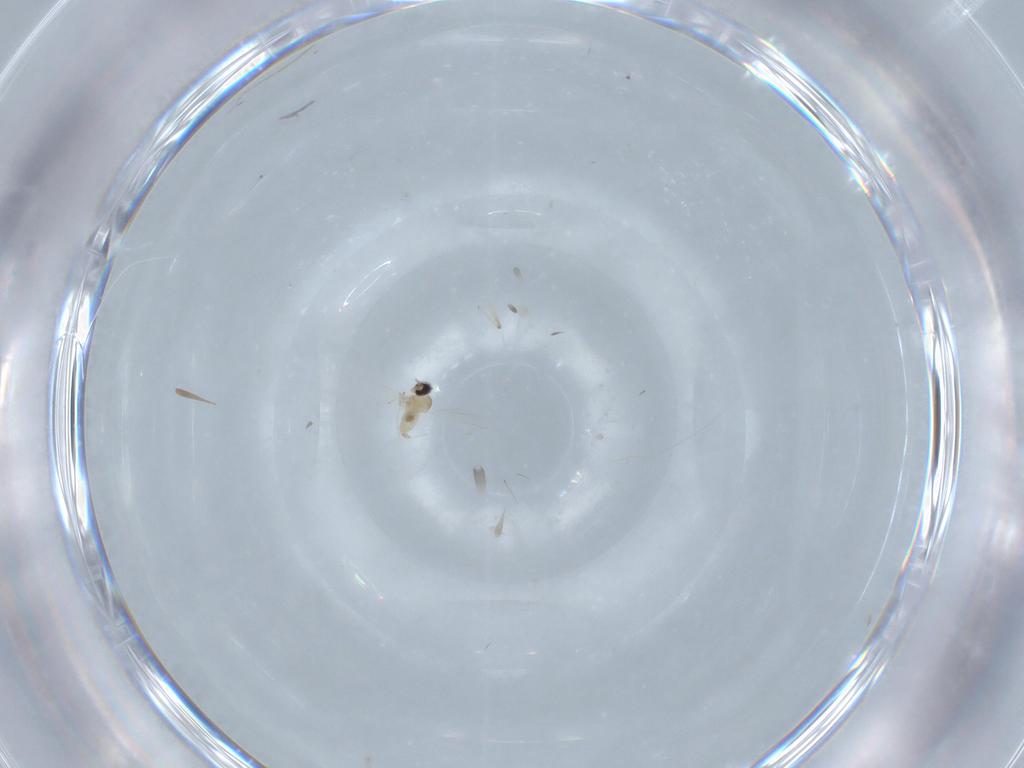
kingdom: Animalia
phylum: Arthropoda
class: Insecta
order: Diptera
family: Cecidomyiidae
